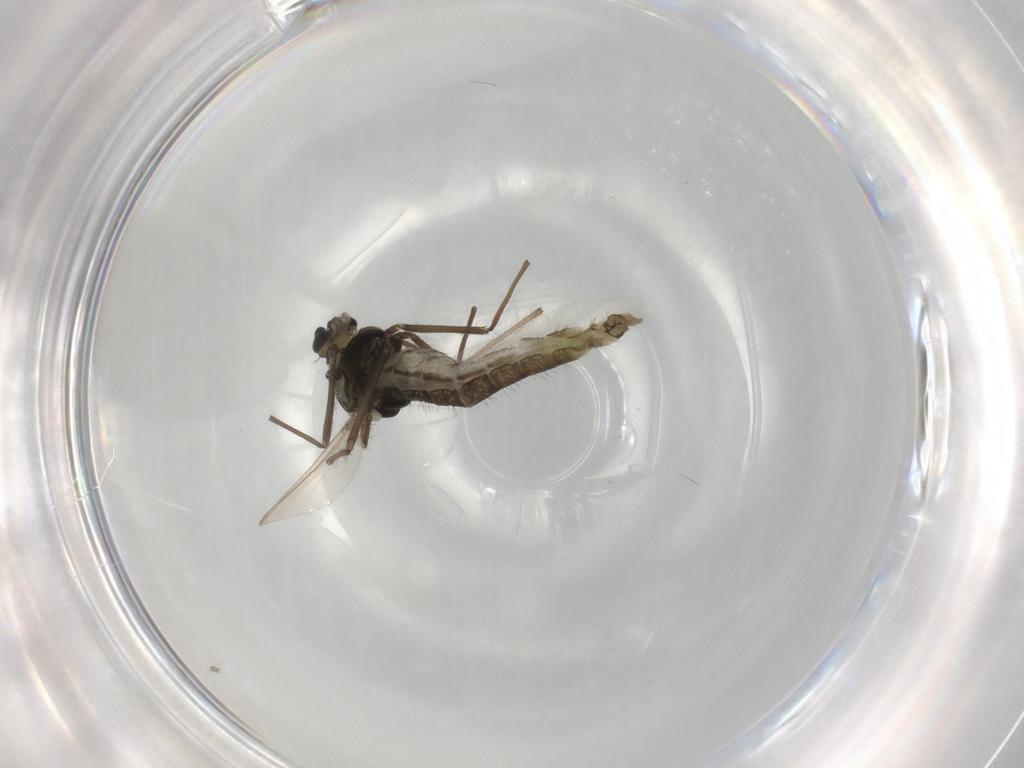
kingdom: Animalia
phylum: Arthropoda
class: Insecta
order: Diptera
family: Chironomidae
